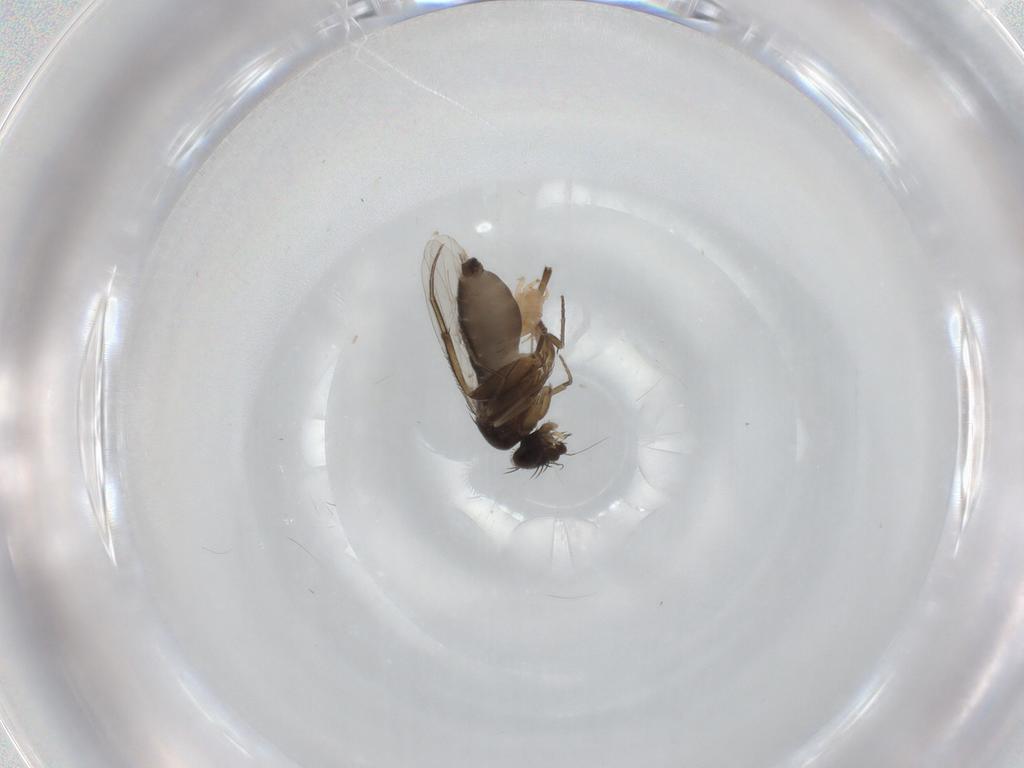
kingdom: Animalia
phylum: Arthropoda
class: Insecta
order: Diptera
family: Phoridae
